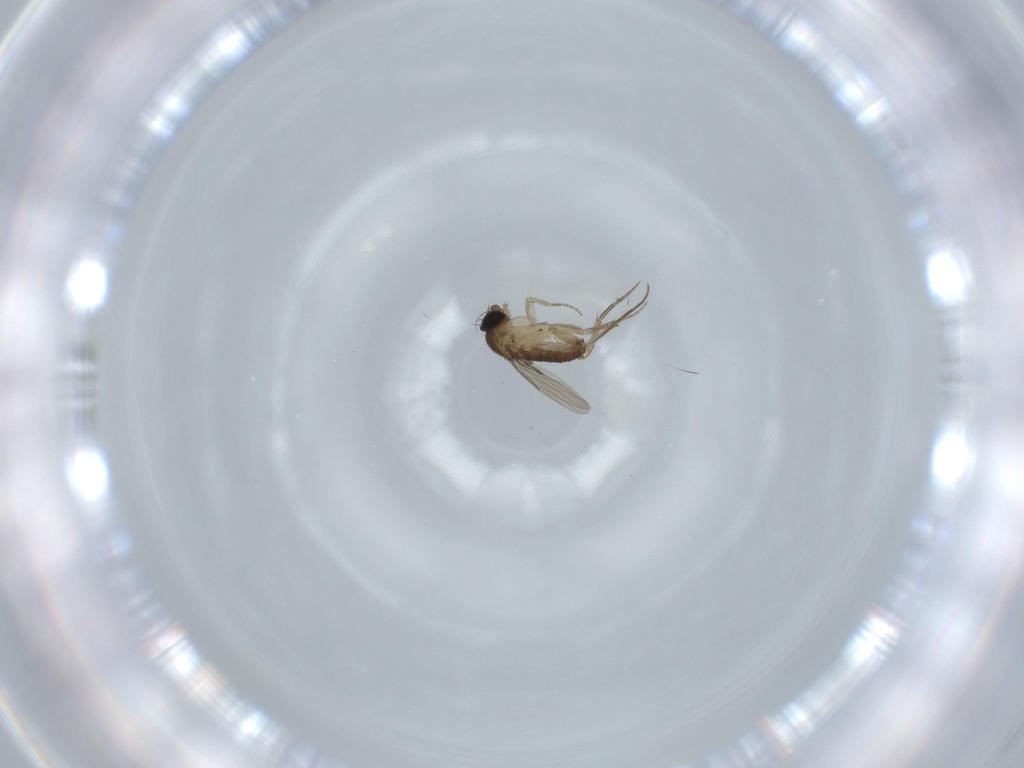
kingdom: Animalia
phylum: Arthropoda
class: Insecta
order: Diptera
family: Phoridae
